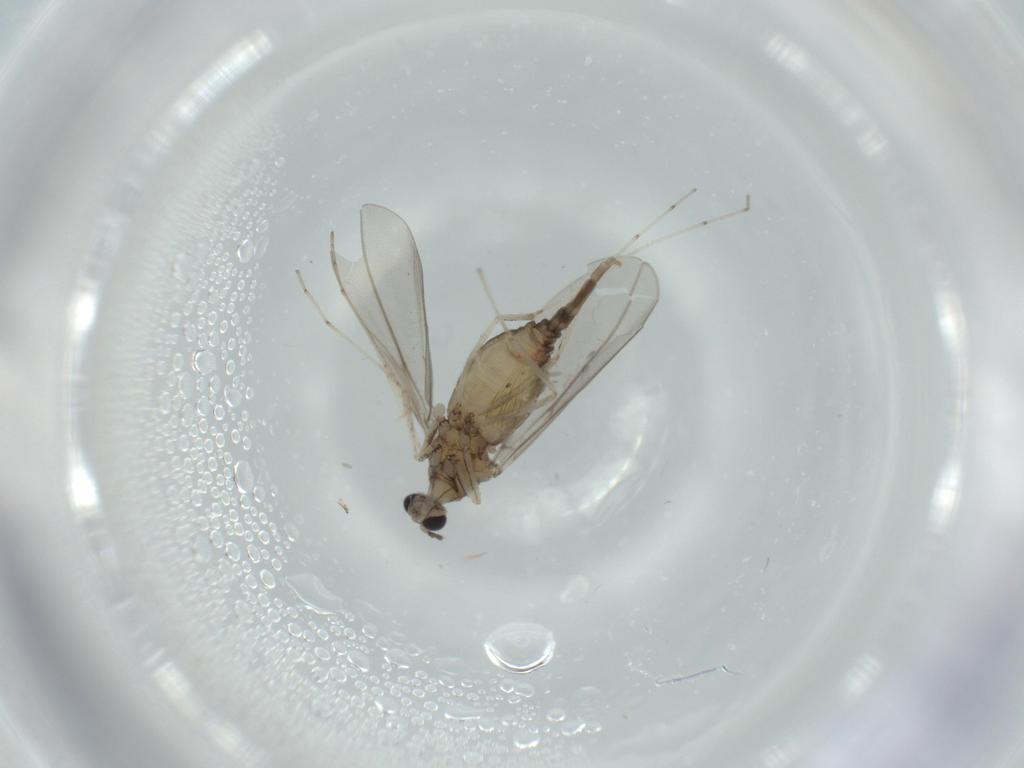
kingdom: Animalia
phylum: Arthropoda
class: Insecta
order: Diptera
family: Cecidomyiidae
